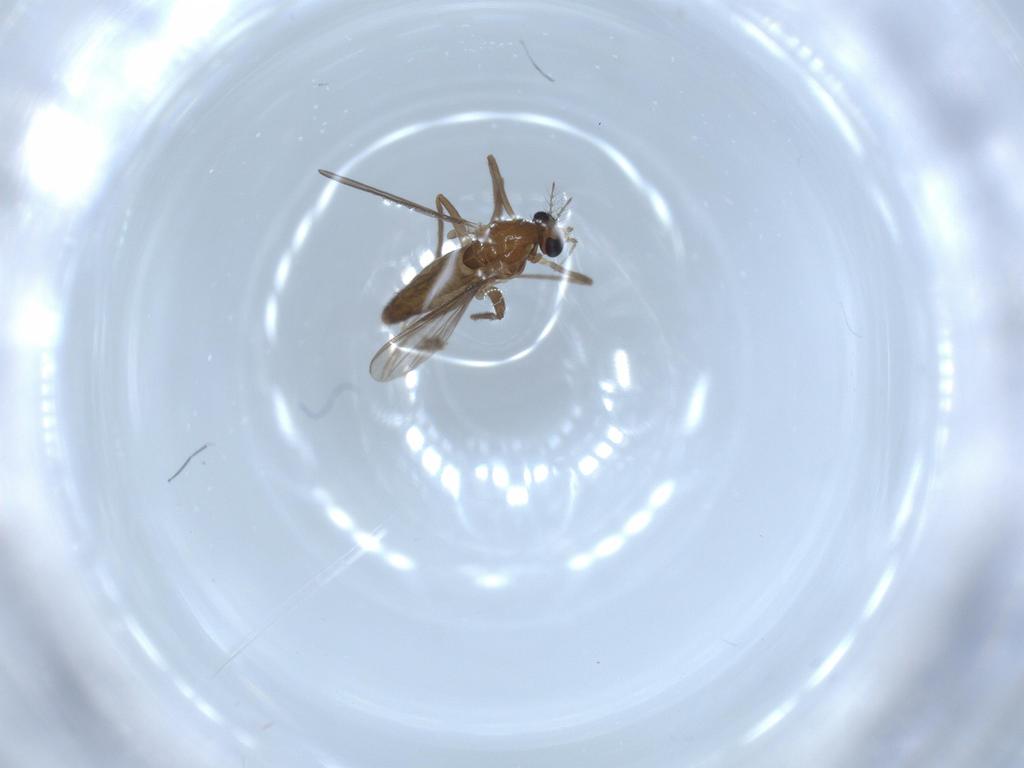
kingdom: Animalia
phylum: Arthropoda
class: Insecta
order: Diptera
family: Chironomidae
